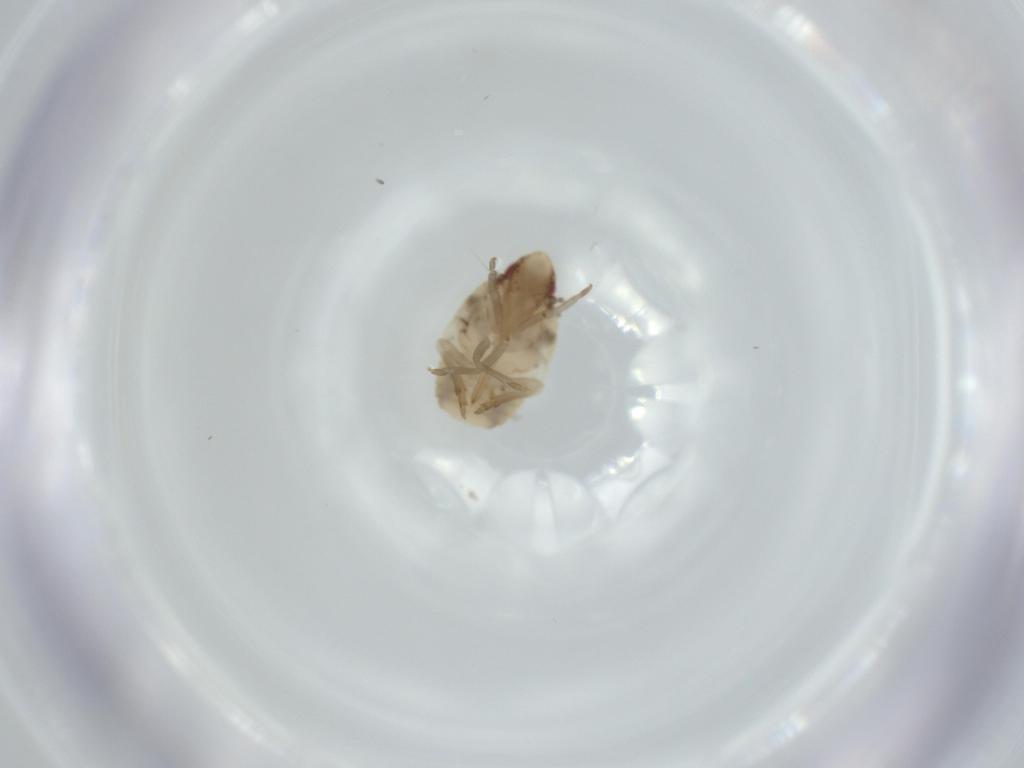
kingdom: Animalia
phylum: Arthropoda
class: Insecta
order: Hemiptera
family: Flatidae
